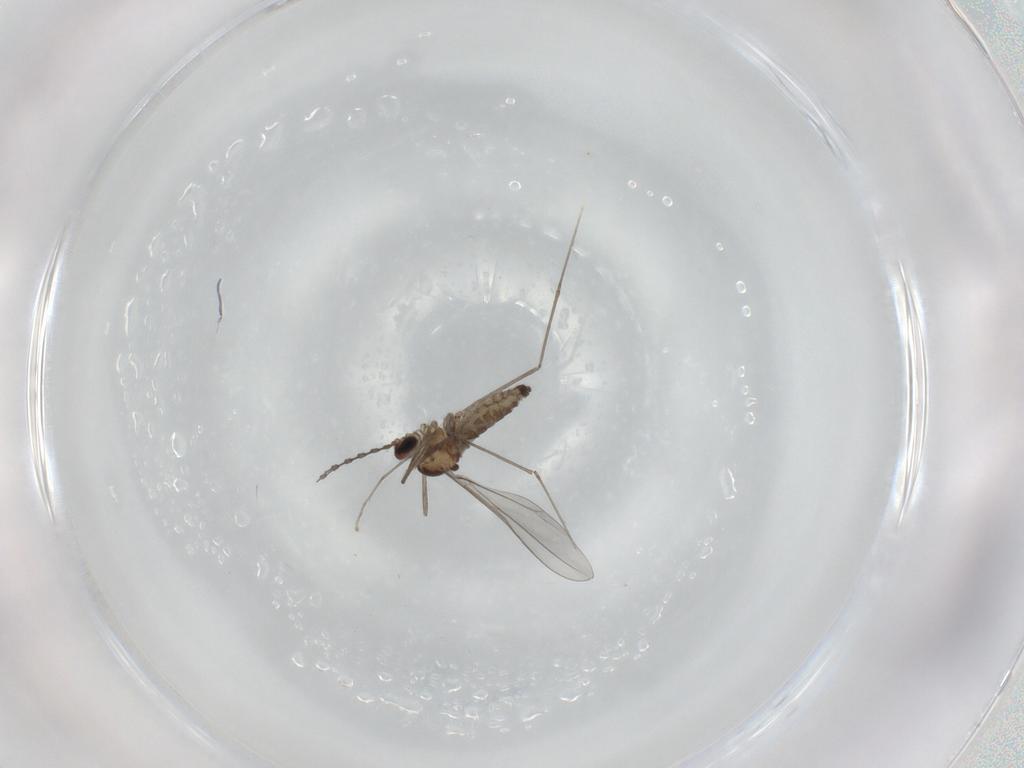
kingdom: Animalia
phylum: Arthropoda
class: Insecta
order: Diptera
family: Cecidomyiidae
